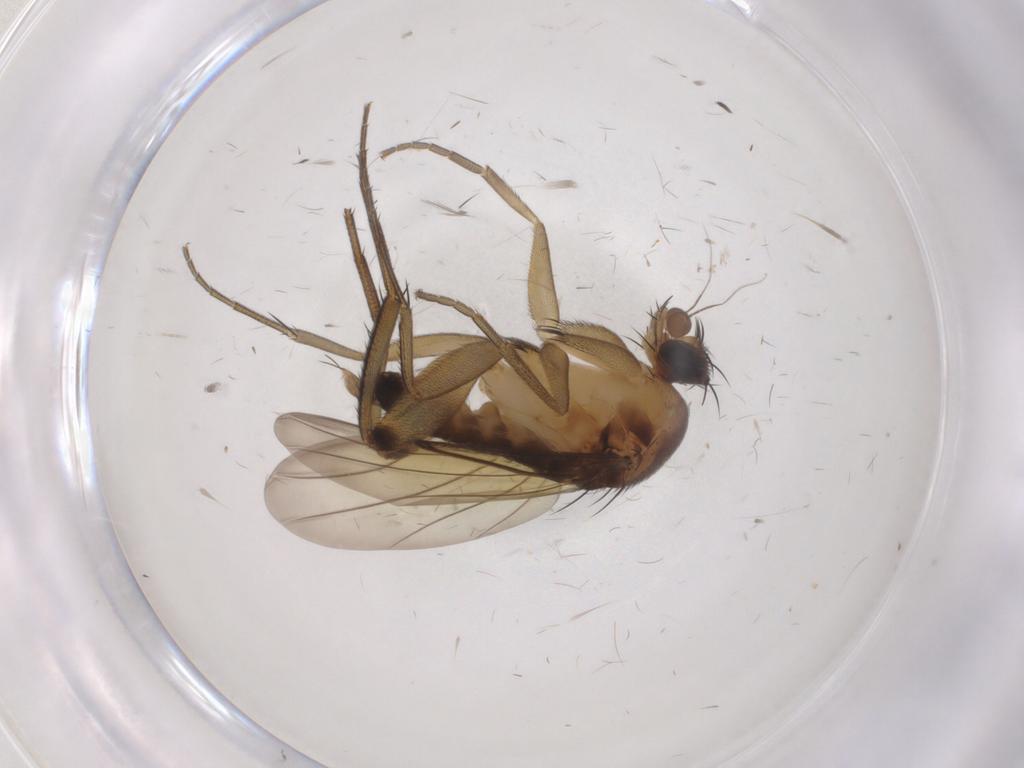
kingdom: Animalia
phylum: Arthropoda
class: Insecta
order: Diptera
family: Phoridae
